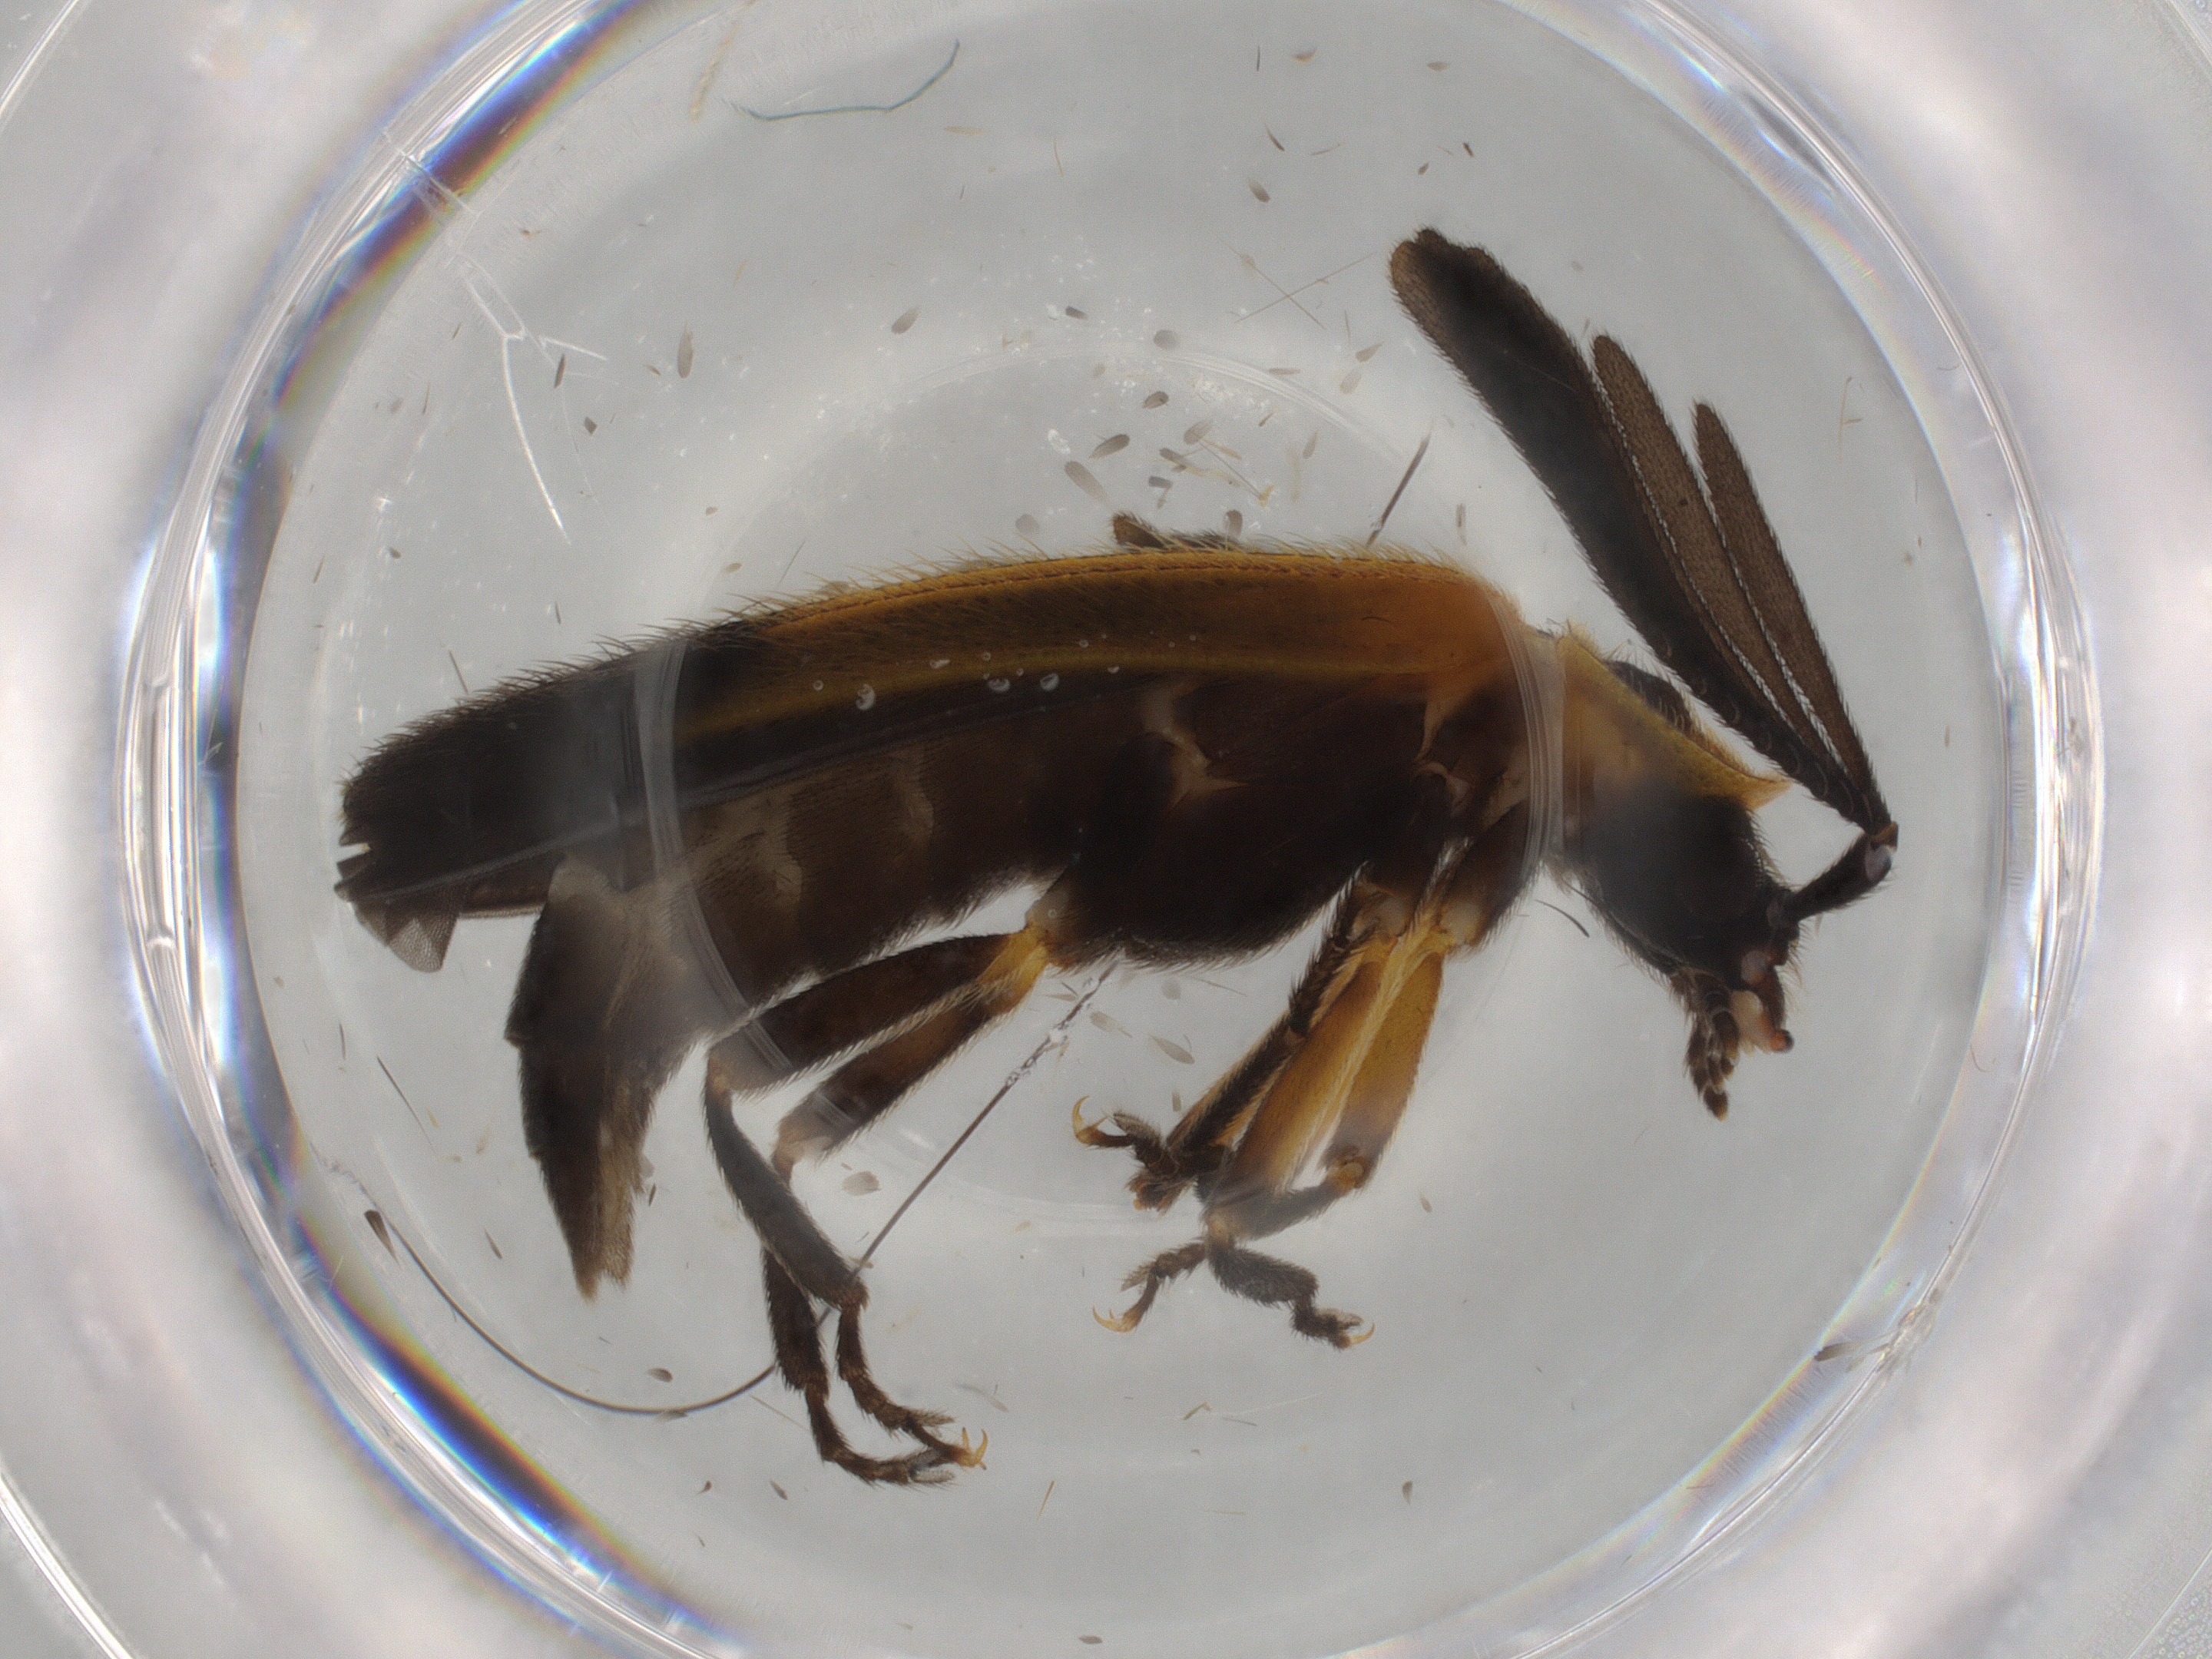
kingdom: Animalia
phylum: Arthropoda
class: Insecta
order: Coleoptera
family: Lampyridae
